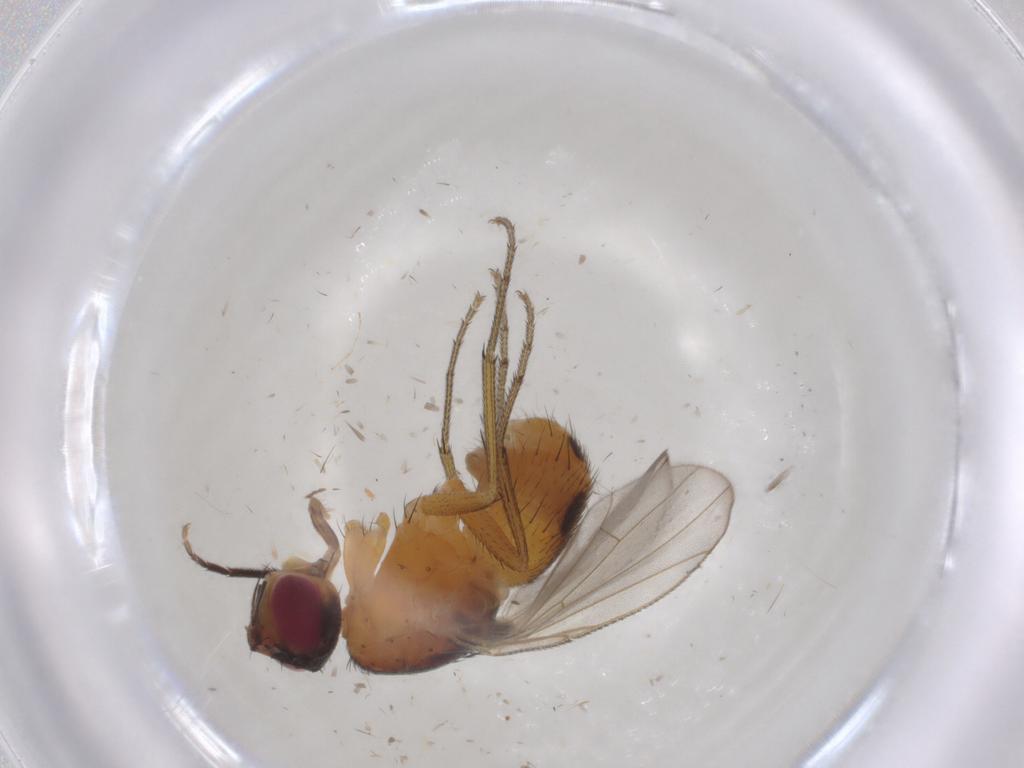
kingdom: Animalia
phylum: Arthropoda
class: Insecta
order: Diptera
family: Muscidae
